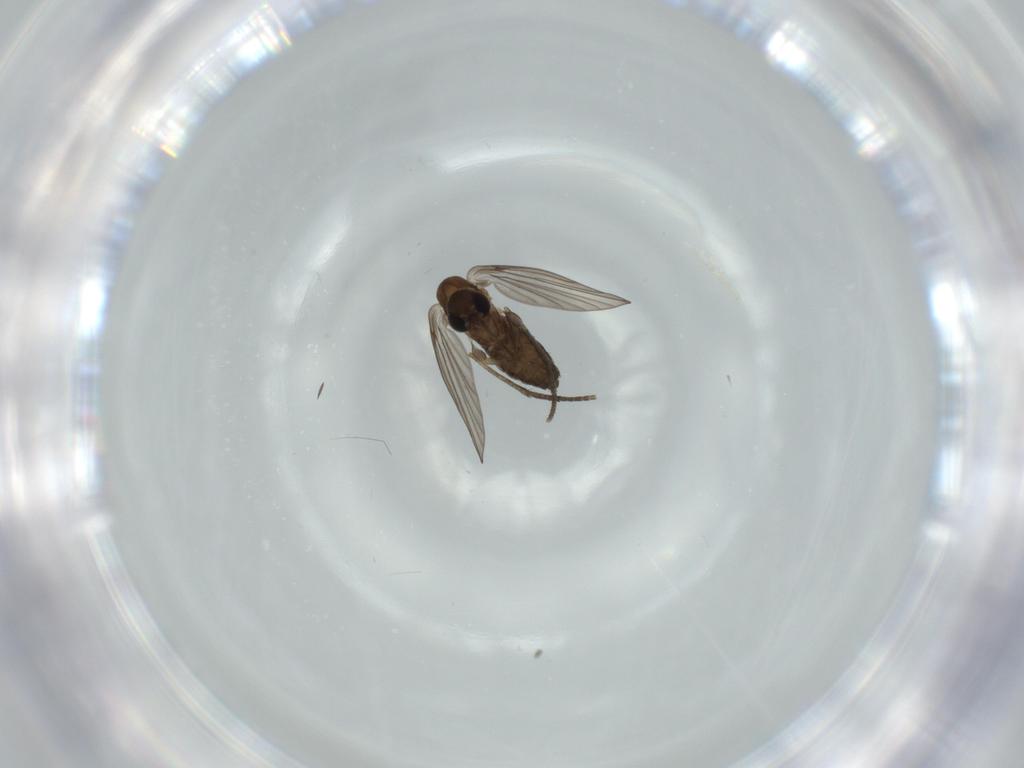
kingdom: Animalia
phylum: Arthropoda
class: Insecta
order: Diptera
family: Psychodidae
